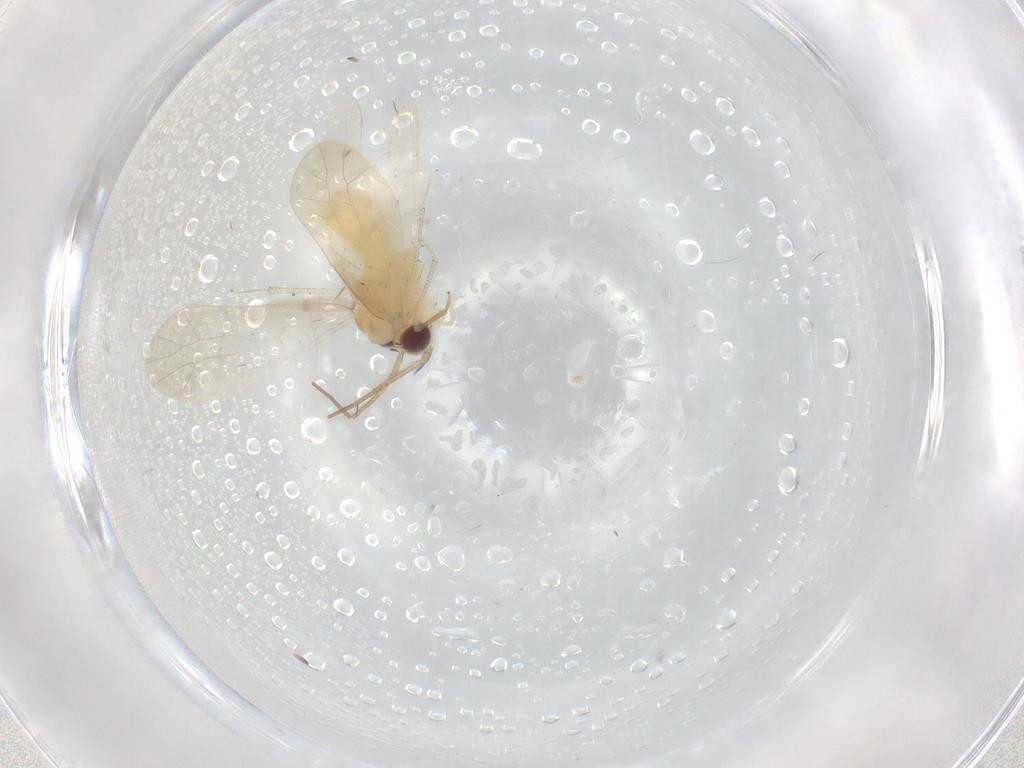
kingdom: Animalia
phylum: Arthropoda
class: Insecta
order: Psocodea
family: Caeciliusidae
